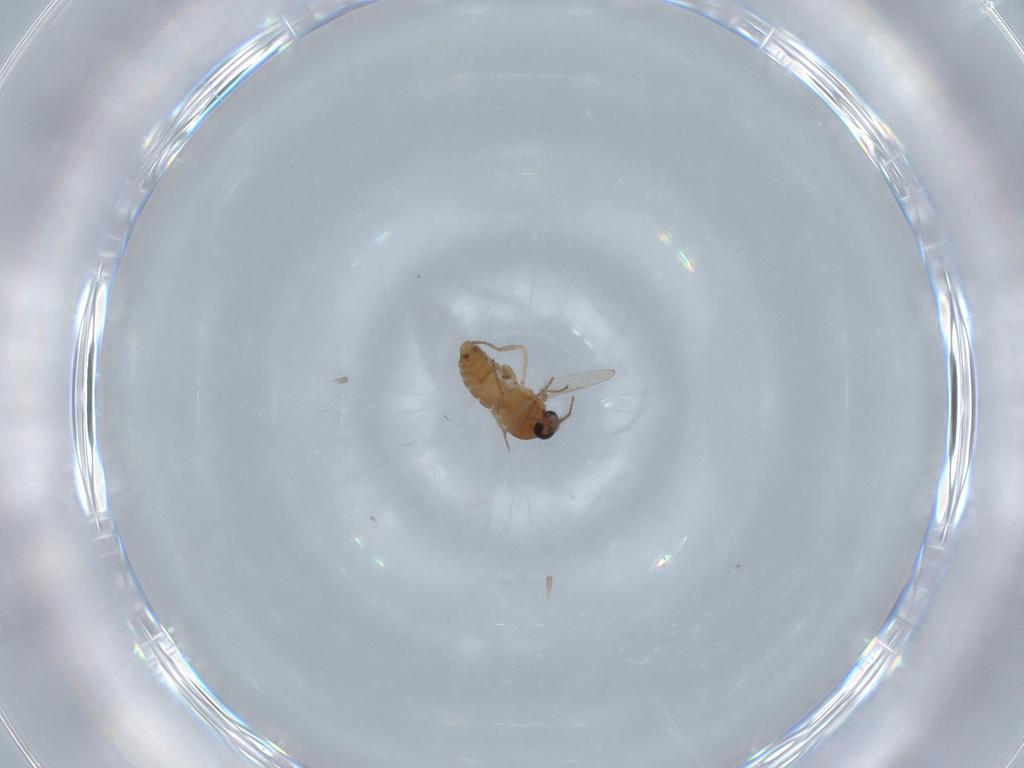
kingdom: Animalia
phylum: Arthropoda
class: Insecta
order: Diptera
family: Ceratopogonidae
